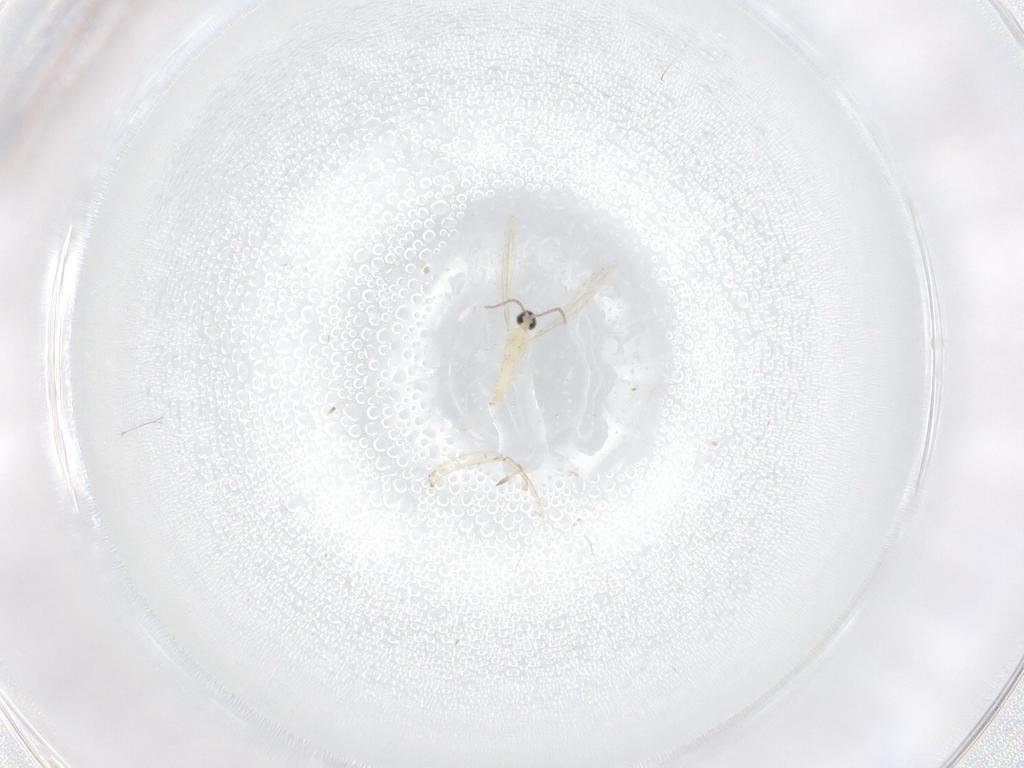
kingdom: Animalia
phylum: Arthropoda
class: Insecta
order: Diptera
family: Cecidomyiidae
